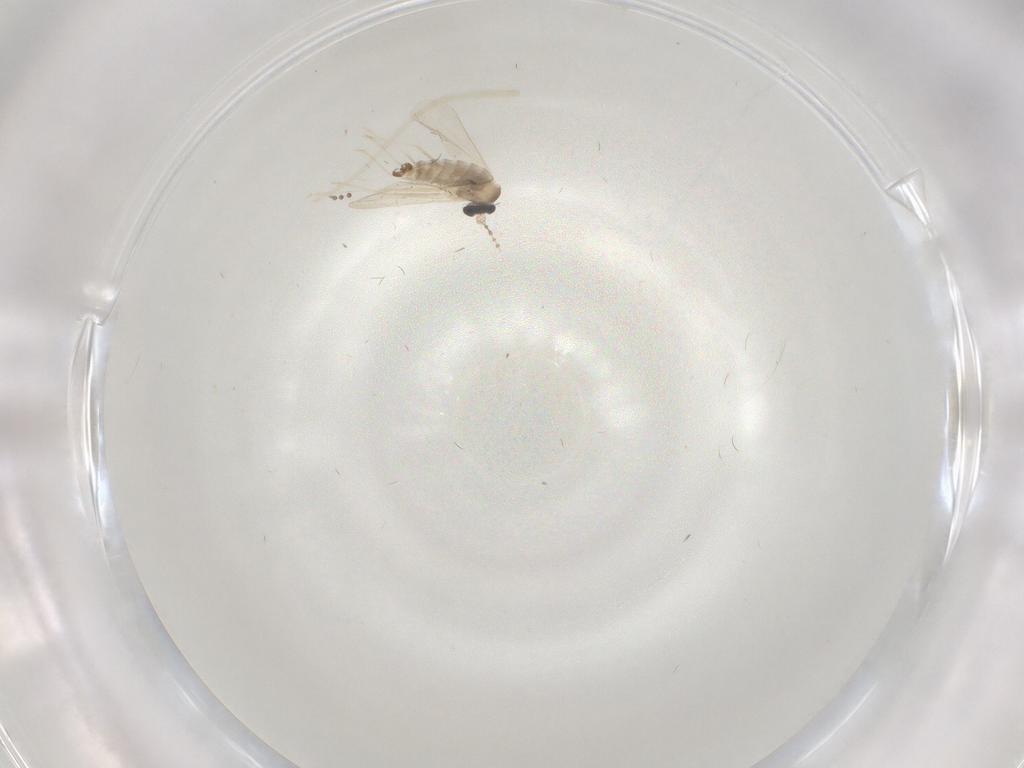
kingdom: Animalia
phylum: Arthropoda
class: Insecta
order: Diptera
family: Cecidomyiidae
